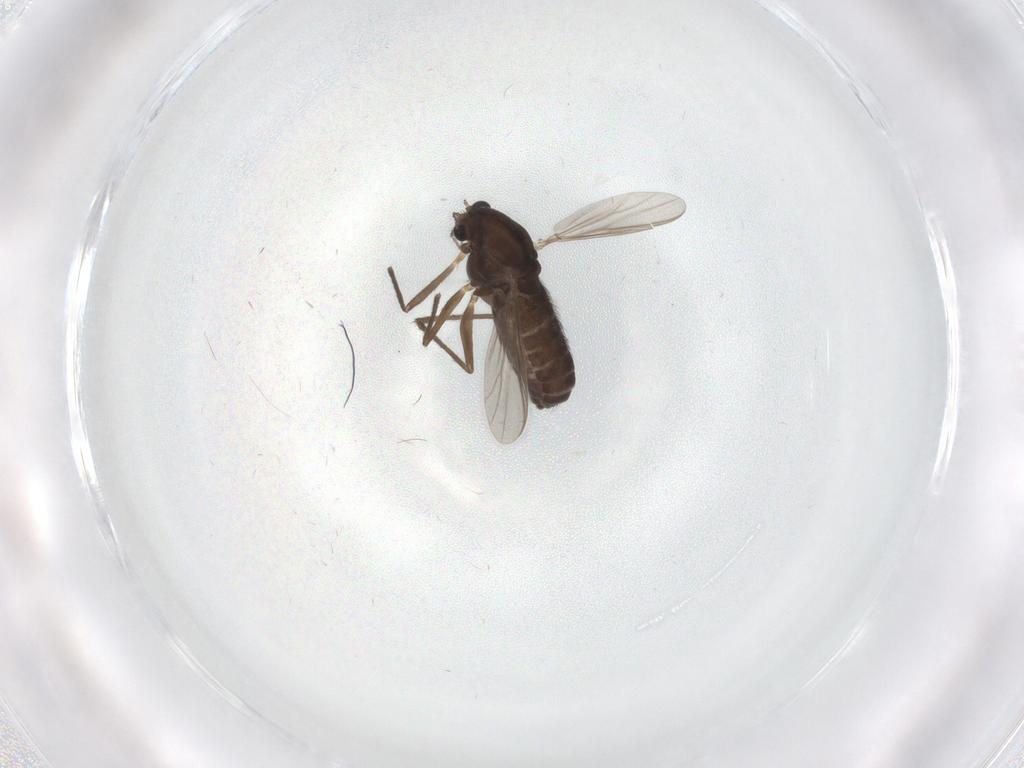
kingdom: Animalia
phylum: Arthropoda
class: Insecta
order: Diptera
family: Chironomidae
